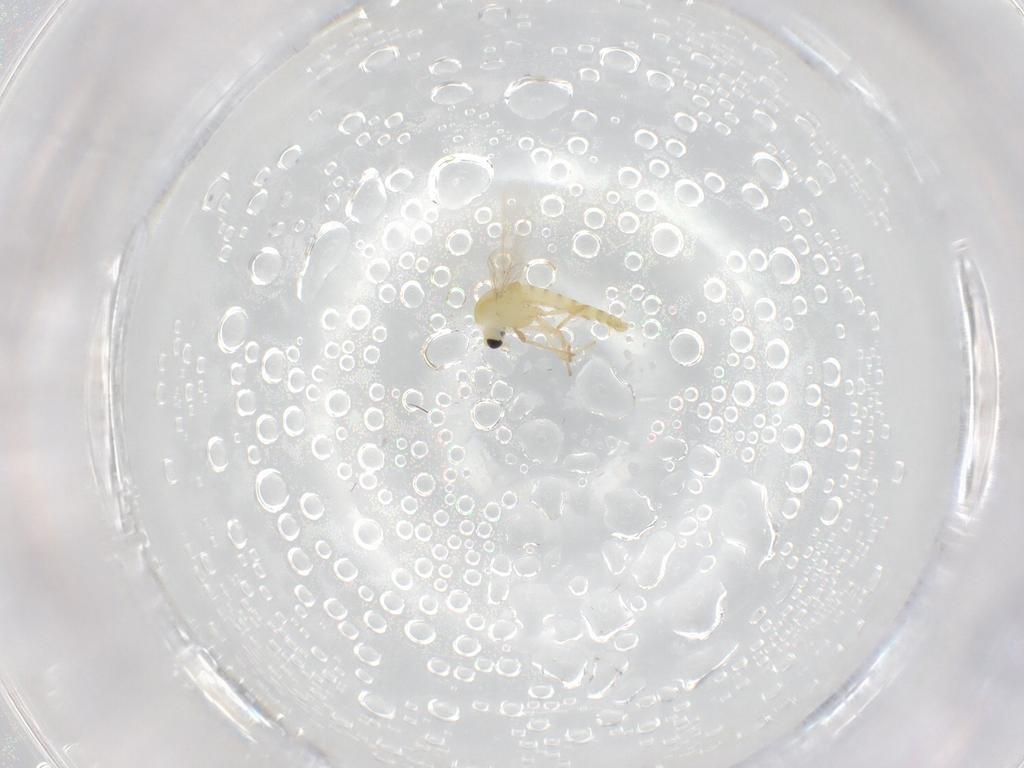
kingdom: Animalia
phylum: Arthropoda
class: Insecta
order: Diptera
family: Chironomidae
